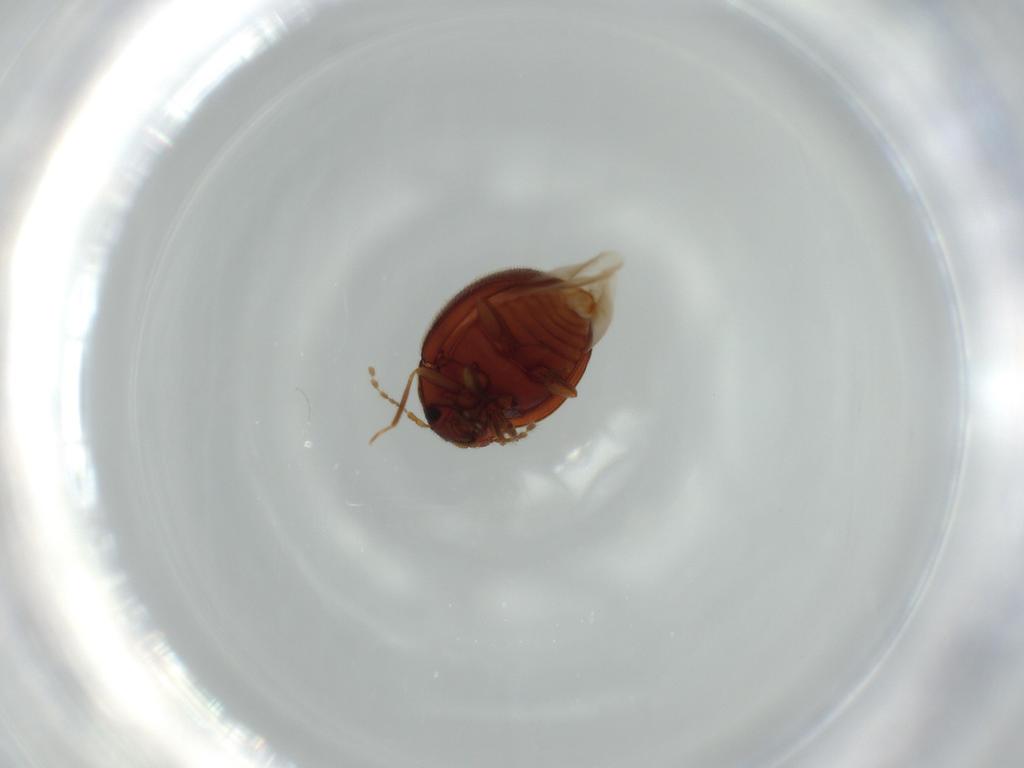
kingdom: Animalia
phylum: Arthropoda
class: Insecta
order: Coleoptera
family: Anamorphidae
